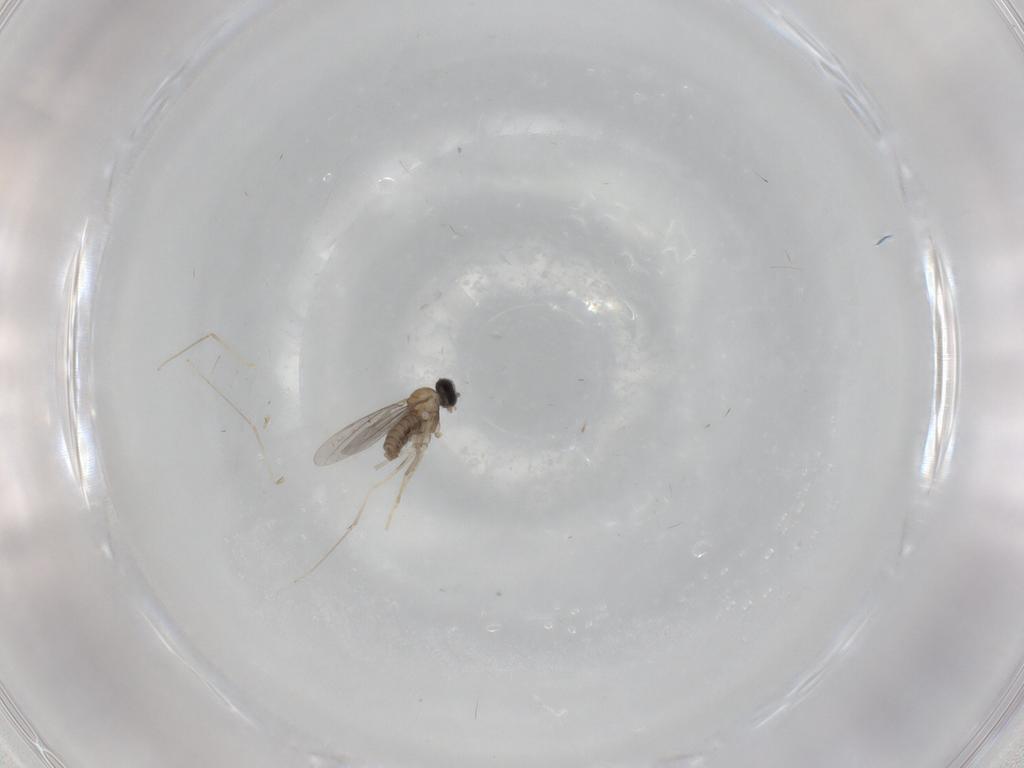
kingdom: Animalia
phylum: Arthropoda
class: Insecta
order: Diptera
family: Cecidomyiidae
